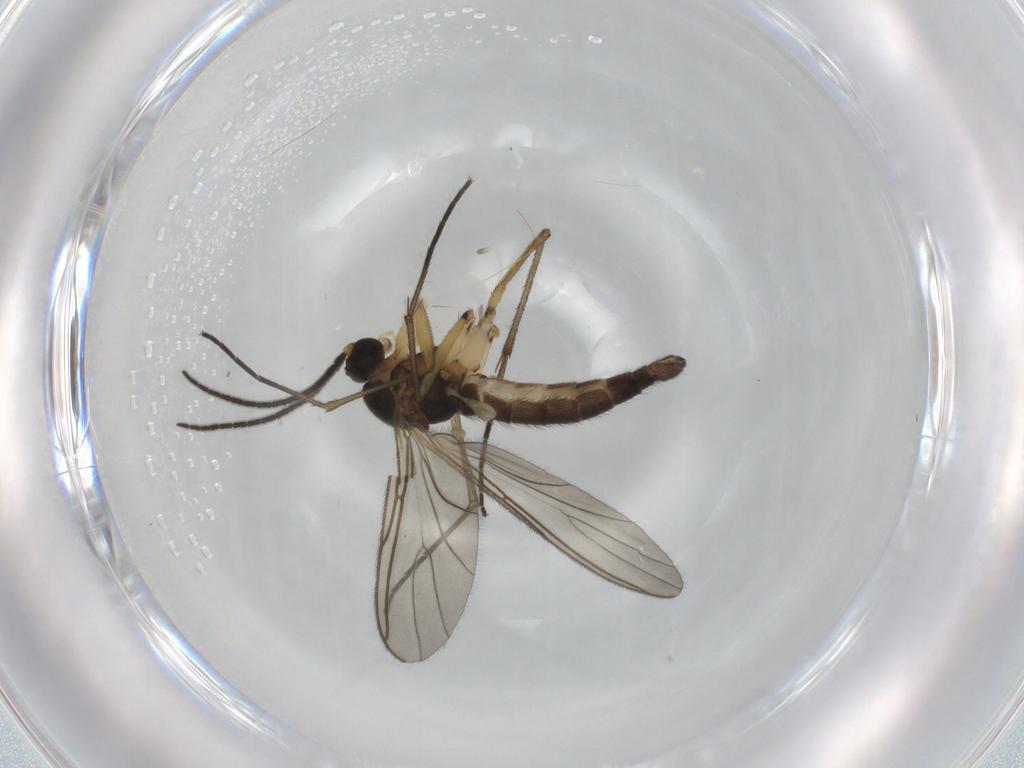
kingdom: Animalia
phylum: Arthropoda
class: Insecta
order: Diptera
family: Sciaridae
